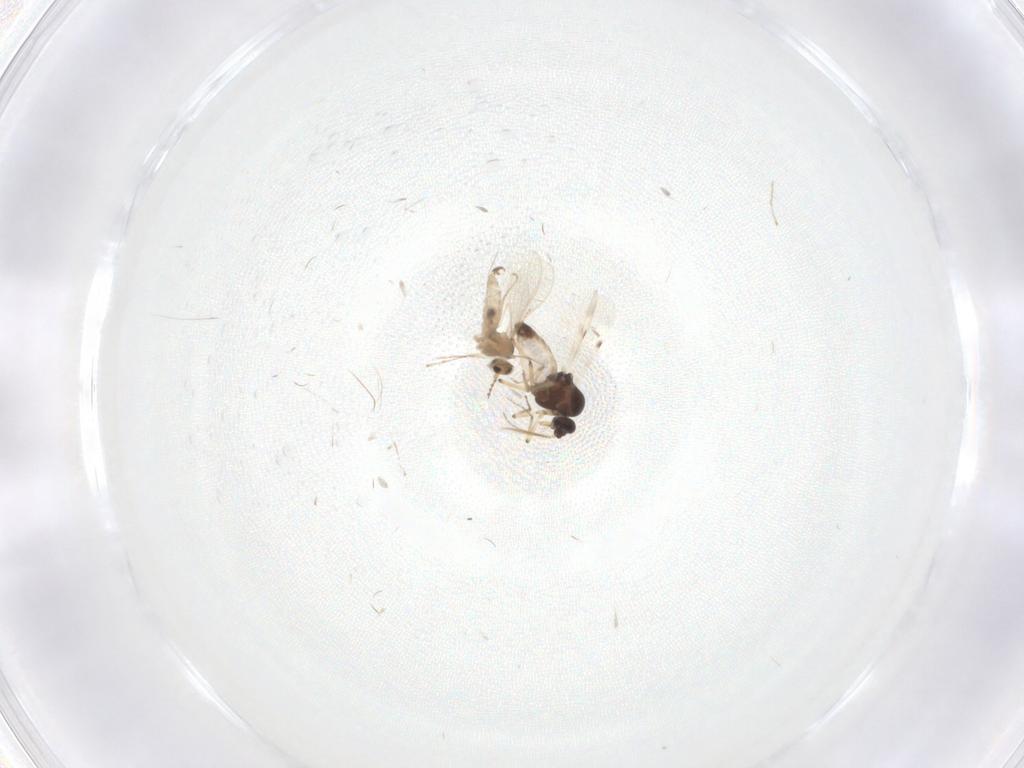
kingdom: Animalia
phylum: Arthropoda
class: Insecta
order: Diptera
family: Cecidomyiidae
